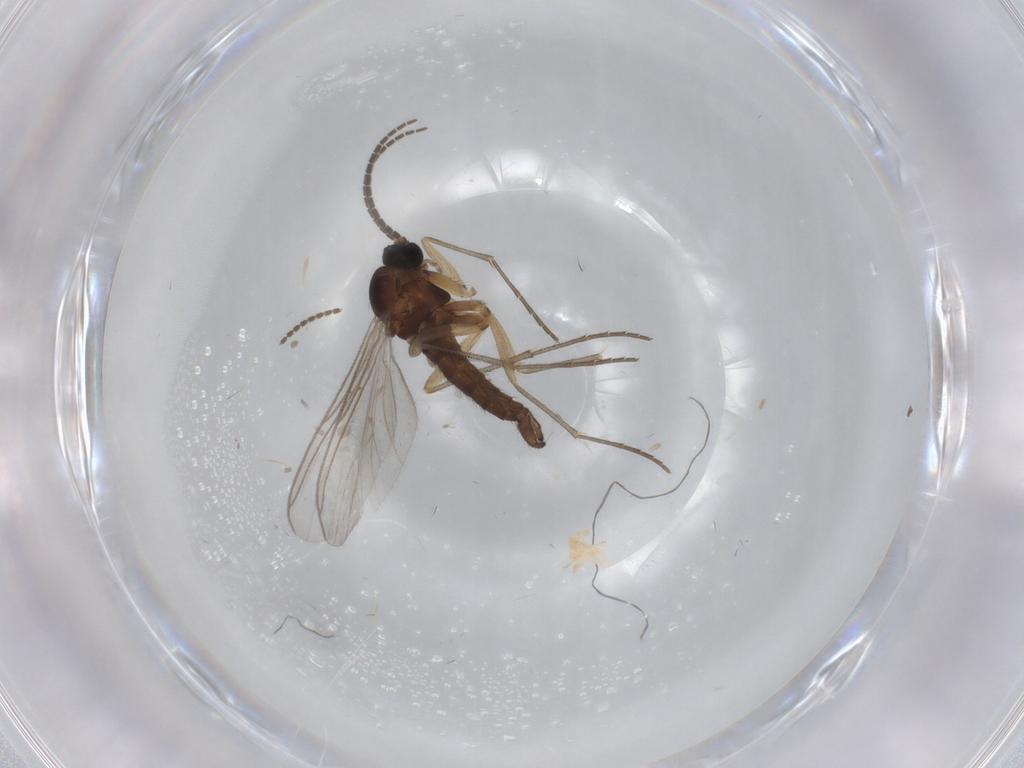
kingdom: Animalia
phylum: Arthropoda
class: Insecta
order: Diptera
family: Sciaridae
